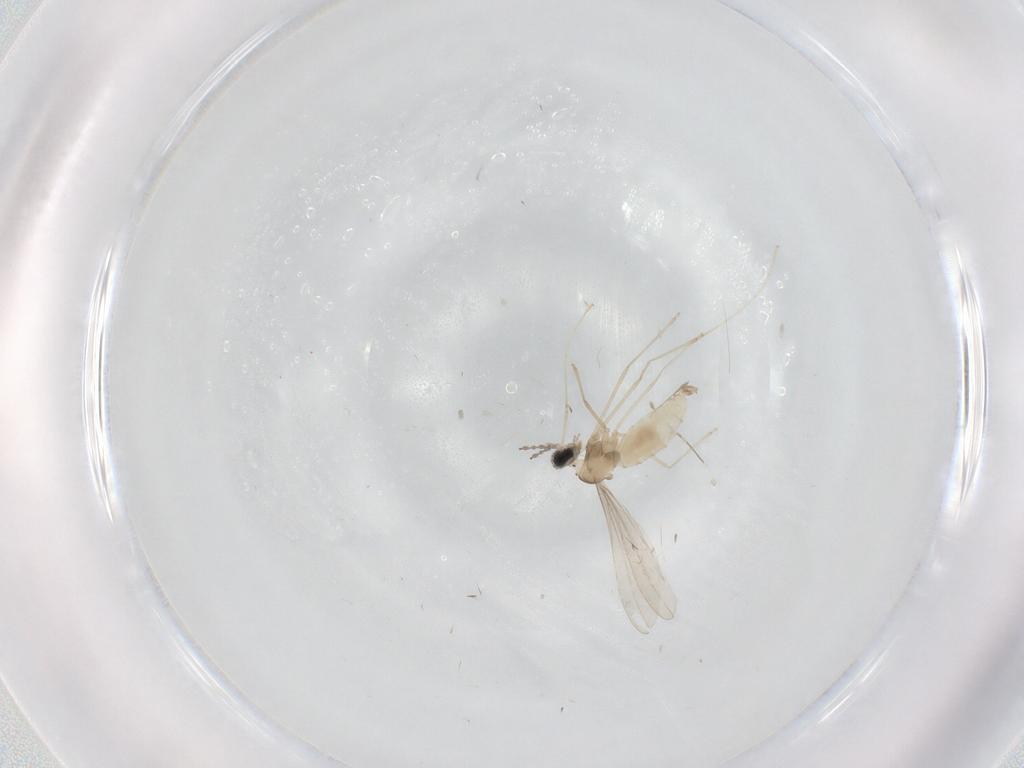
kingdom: Animalia
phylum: Arthropoda
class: Insecta
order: Diptera
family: Chironomidae
